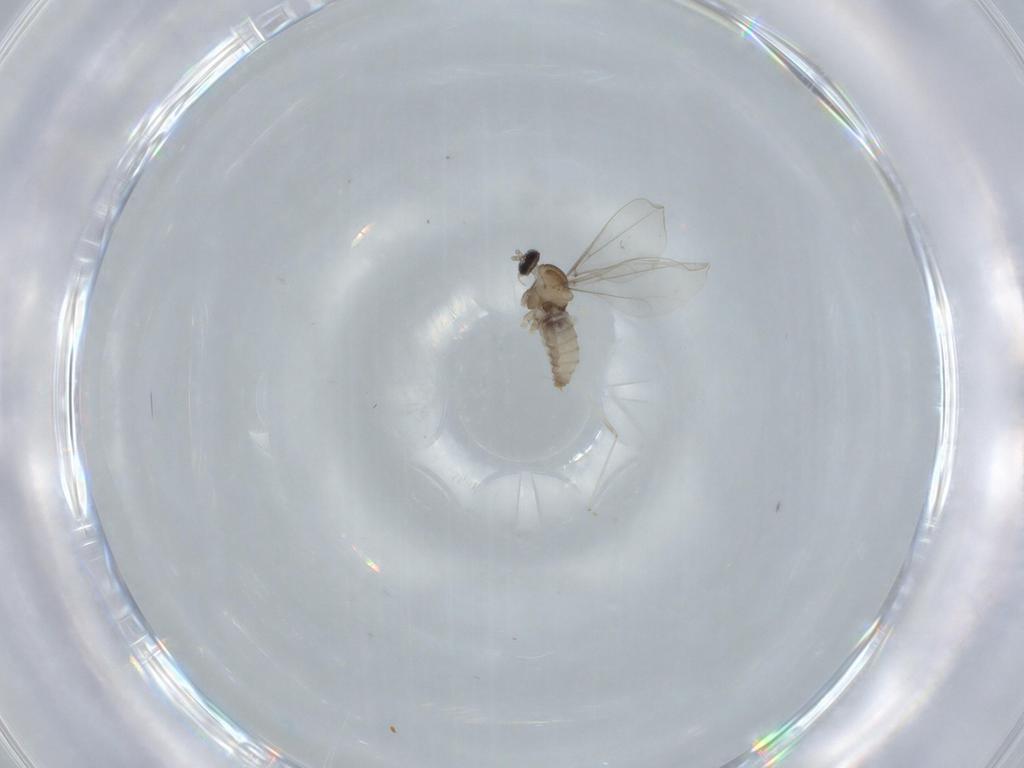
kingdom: Animalia
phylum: Arthropoda
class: Insecta
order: Diptera
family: Cecidomyiidae
